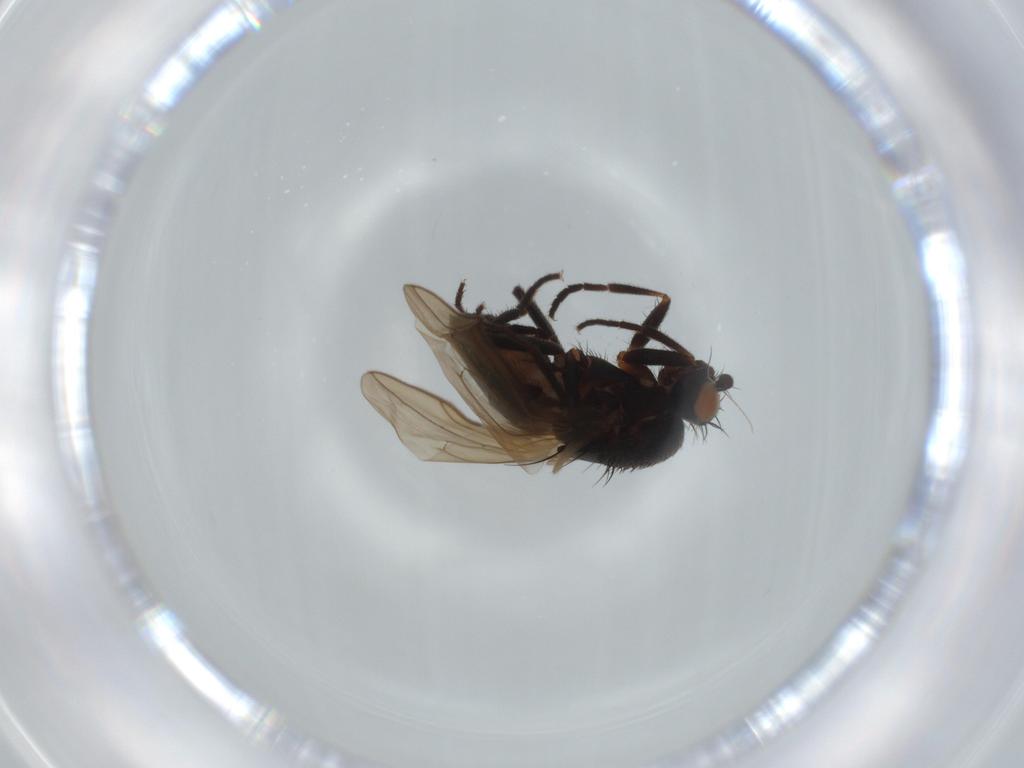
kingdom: Animalia
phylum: Arthropoda
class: Insecta
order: Diptera
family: Sphaeroceridae
